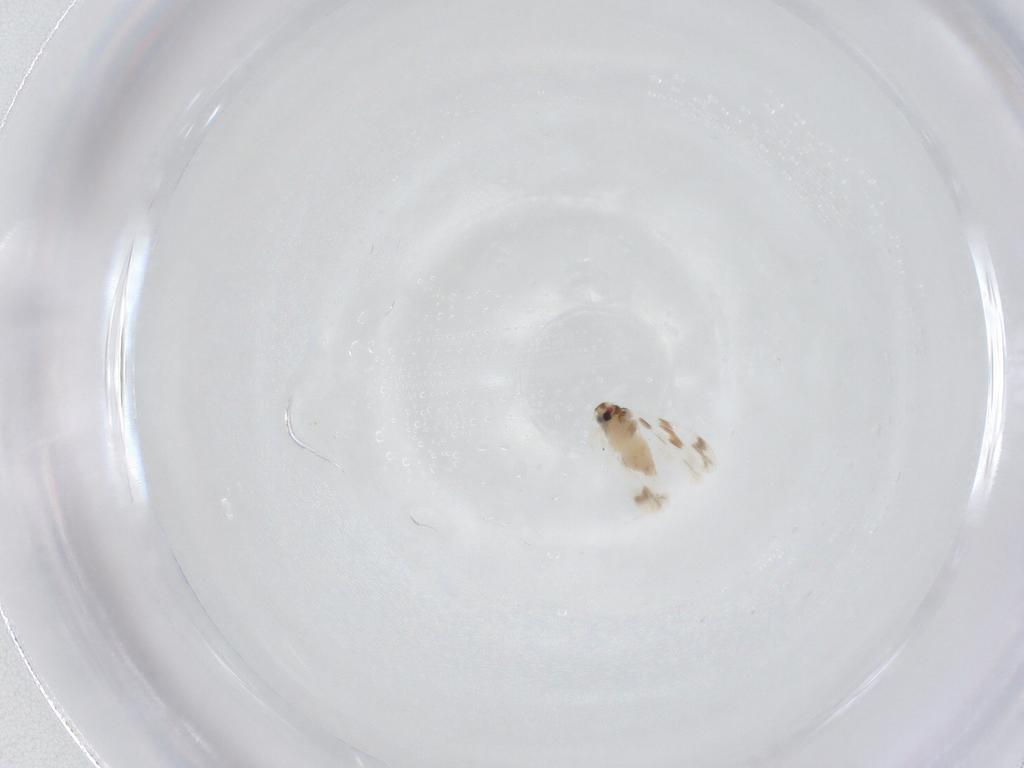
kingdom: Animalia
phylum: Arthropoda
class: Insecta
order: Hemiptera
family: Aleyrodidae
